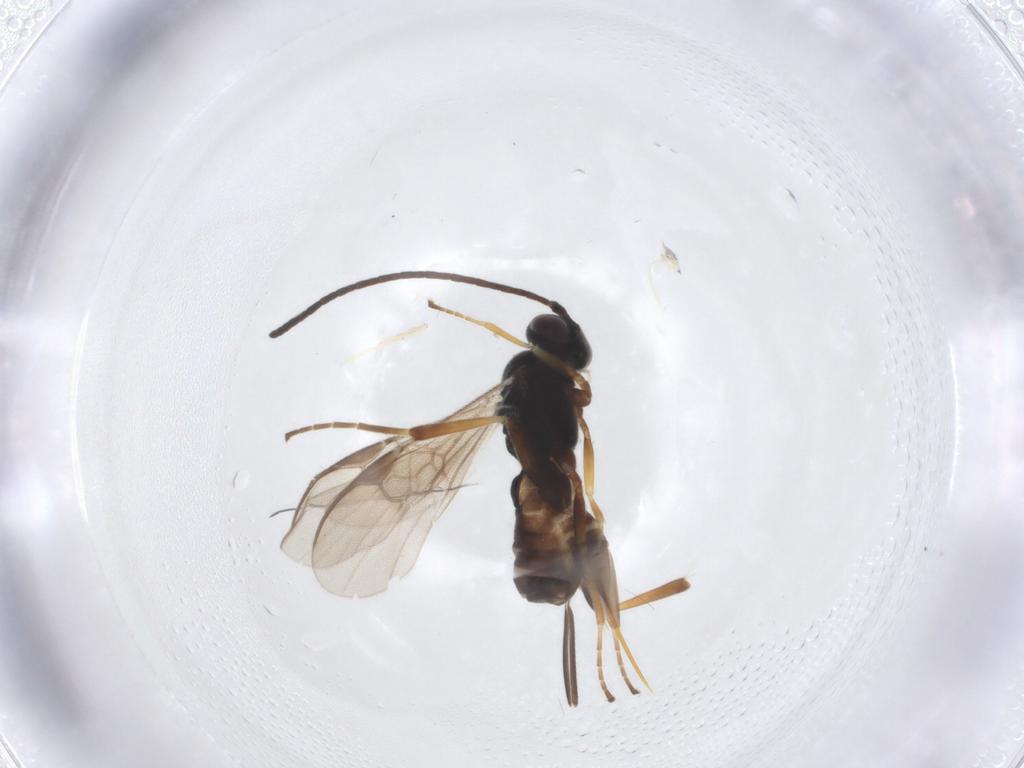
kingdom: Animalia
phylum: Arthropoda
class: Insecta
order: Hymenoptera
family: Braconidae
